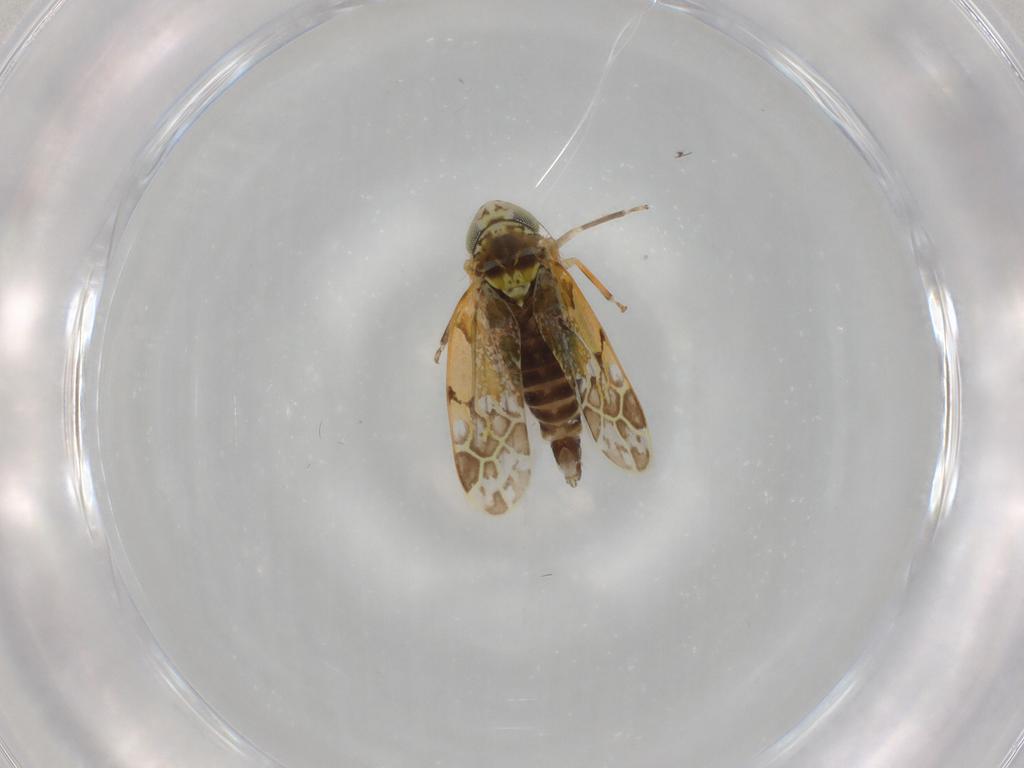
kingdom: Animalia
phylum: Arthropoda
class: Insecta
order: Hemiptera
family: Cicadellidae
